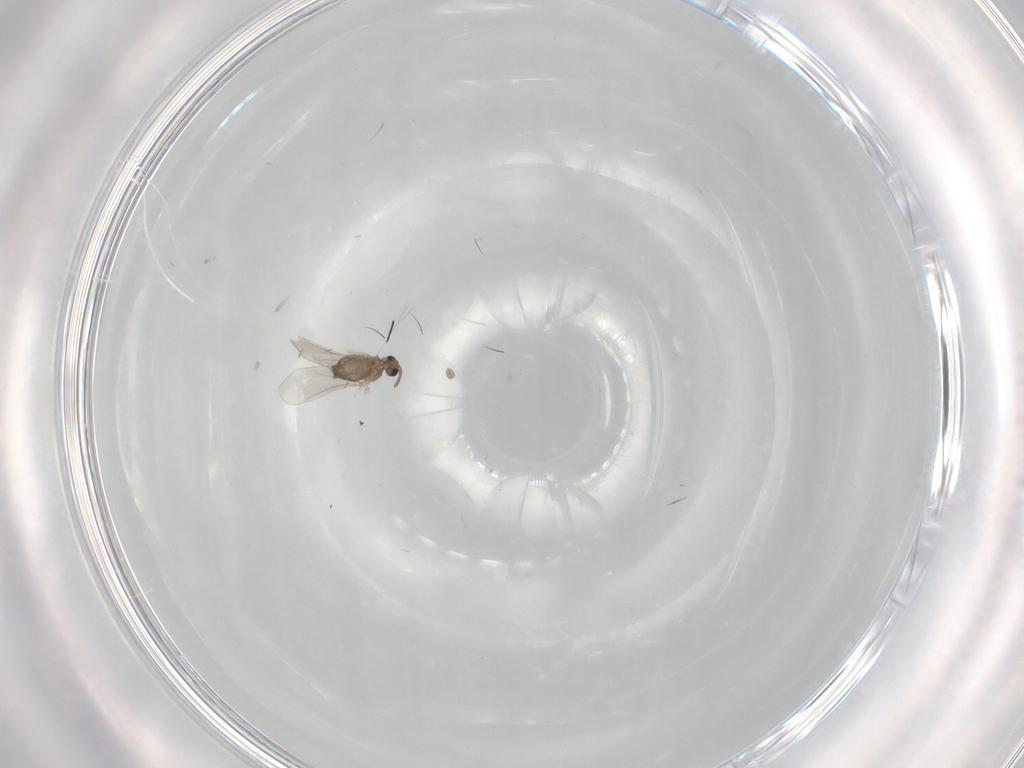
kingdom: Animalia
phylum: Arthropoda
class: Insecta
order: Diptera
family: Cecidomyiidae
